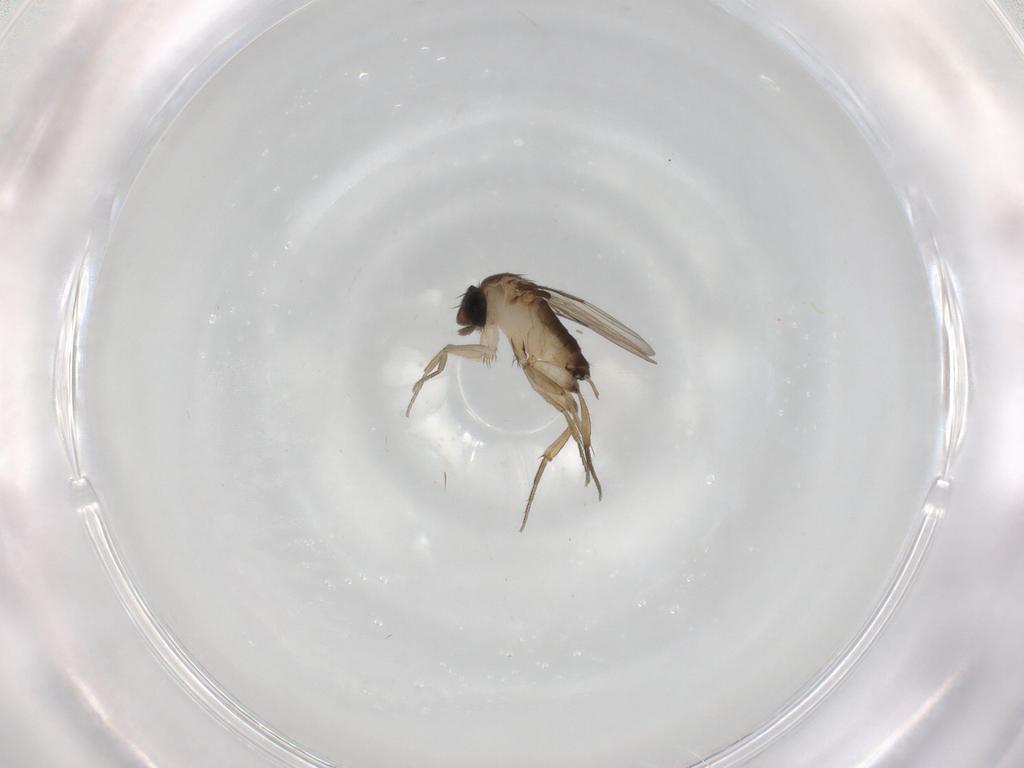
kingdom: Animalia
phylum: Arthropoda
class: Insecta
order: Diptera
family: Phoridae
